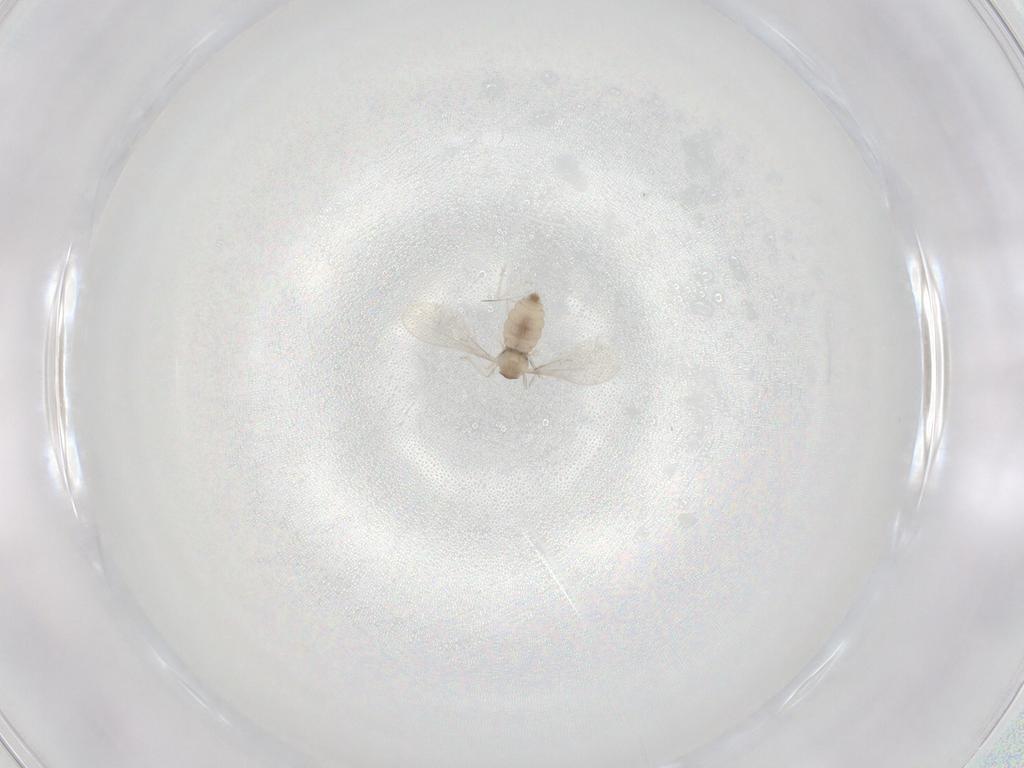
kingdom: Animalia
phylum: Arthropoda
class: Insecta
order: Diptera
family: Cecidomyiidae
